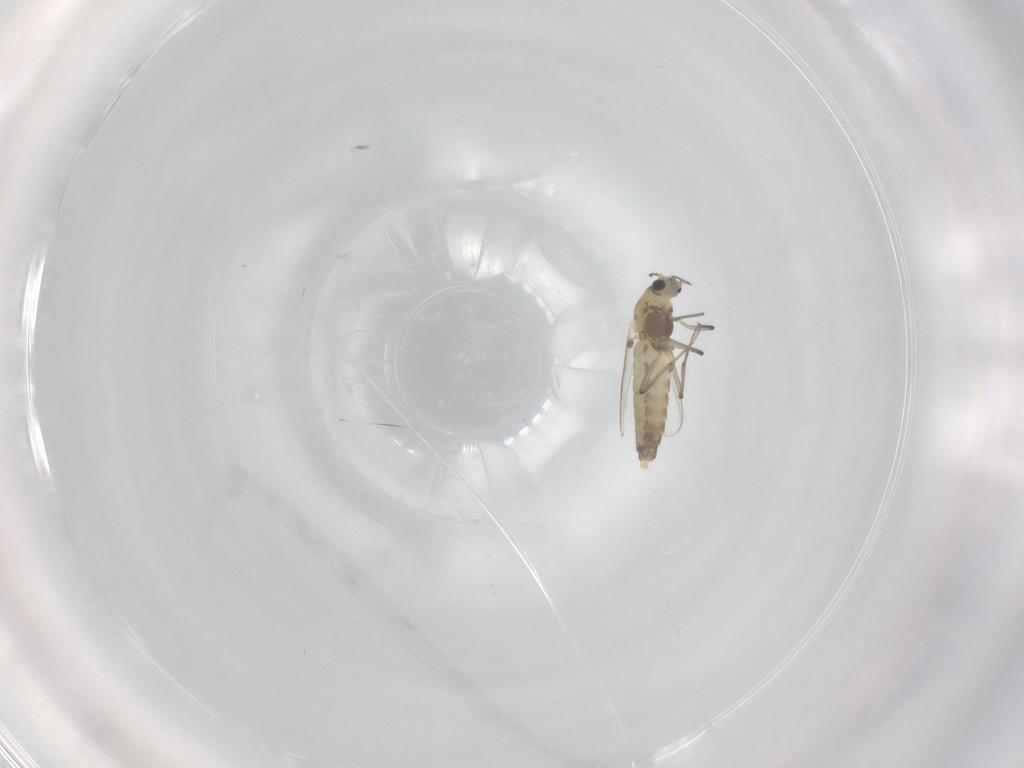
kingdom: Animalia
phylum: Arthropoda
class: Insecta
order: Diptera
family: Chironomidae
